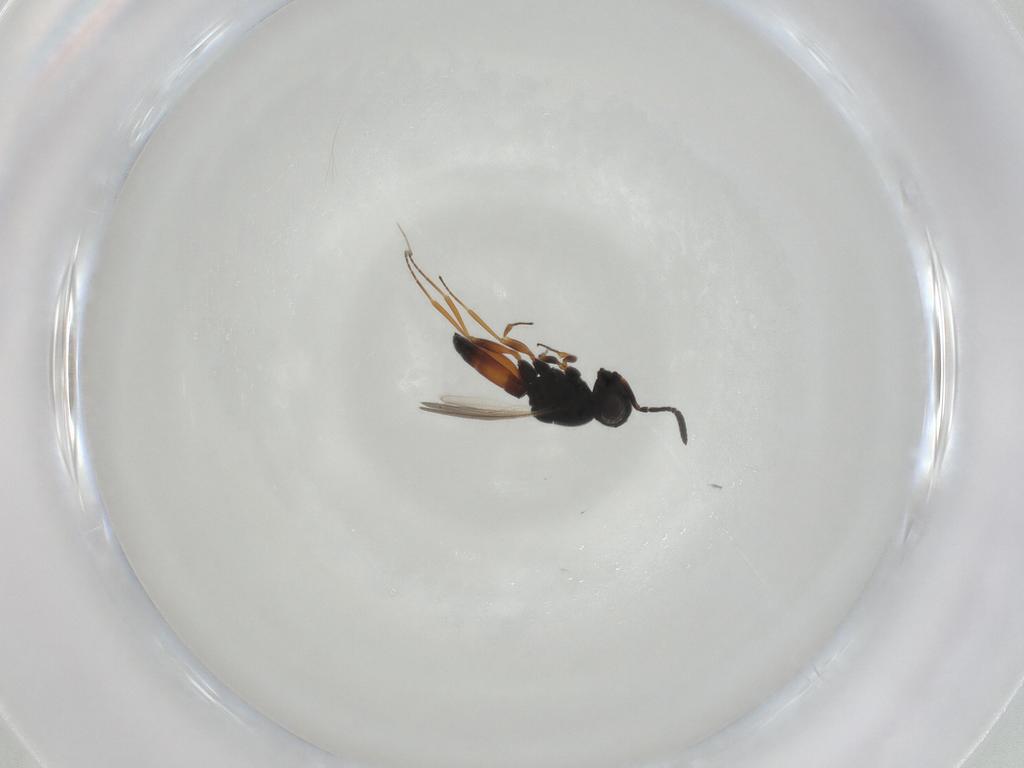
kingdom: Animalia
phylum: Arthropoda
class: Insecta
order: Hymenoptera
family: Scelionidae
